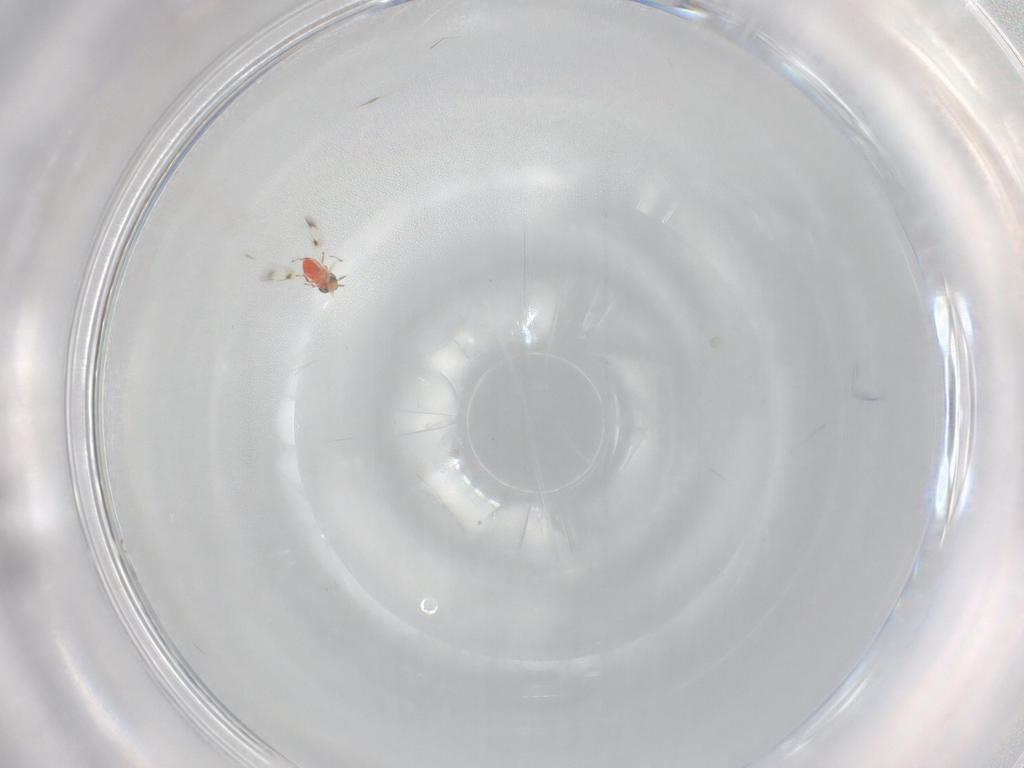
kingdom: Animalia
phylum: Arthropoda
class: Insecta
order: Hymenoptera
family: Trichogrammatidae
